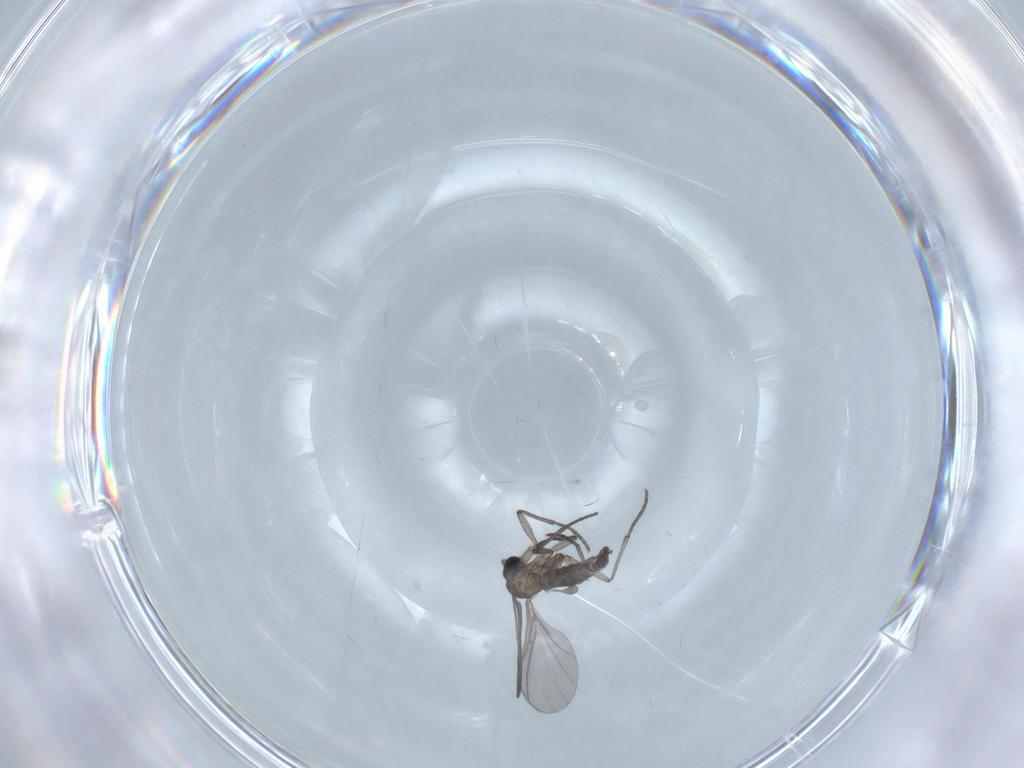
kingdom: Animalia
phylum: Arthropoda
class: Insecta
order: Diptera
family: Sciaridae
